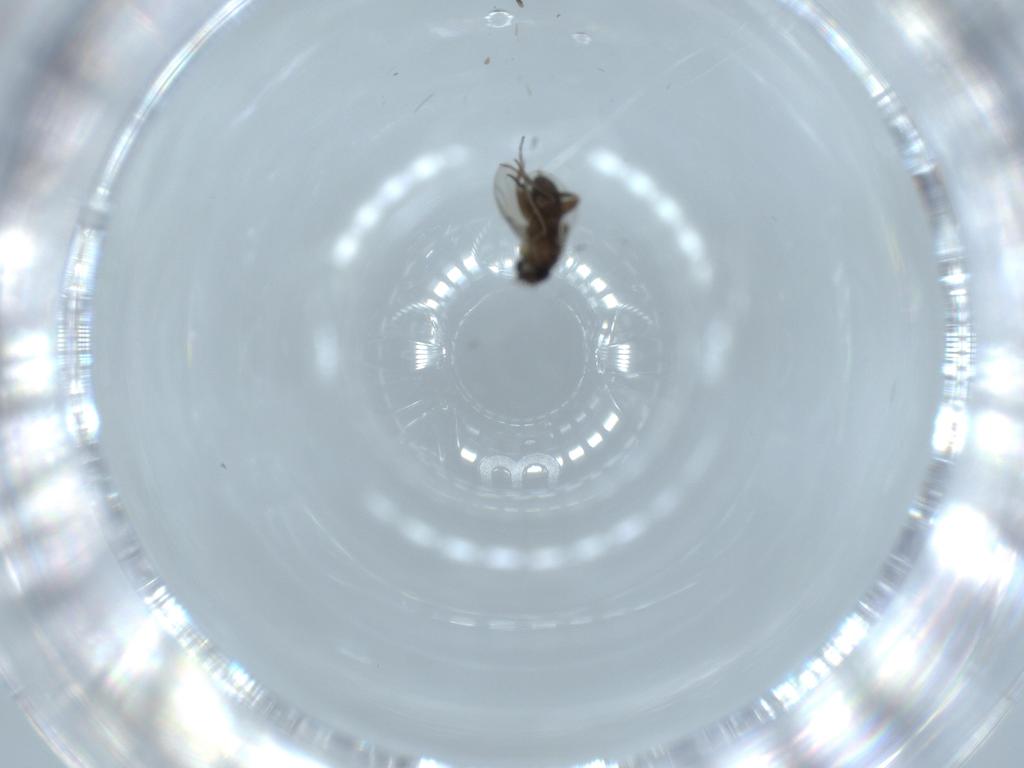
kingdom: Animalia
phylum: Arthropoda
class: Insecta
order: Diptera
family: Phoridae
